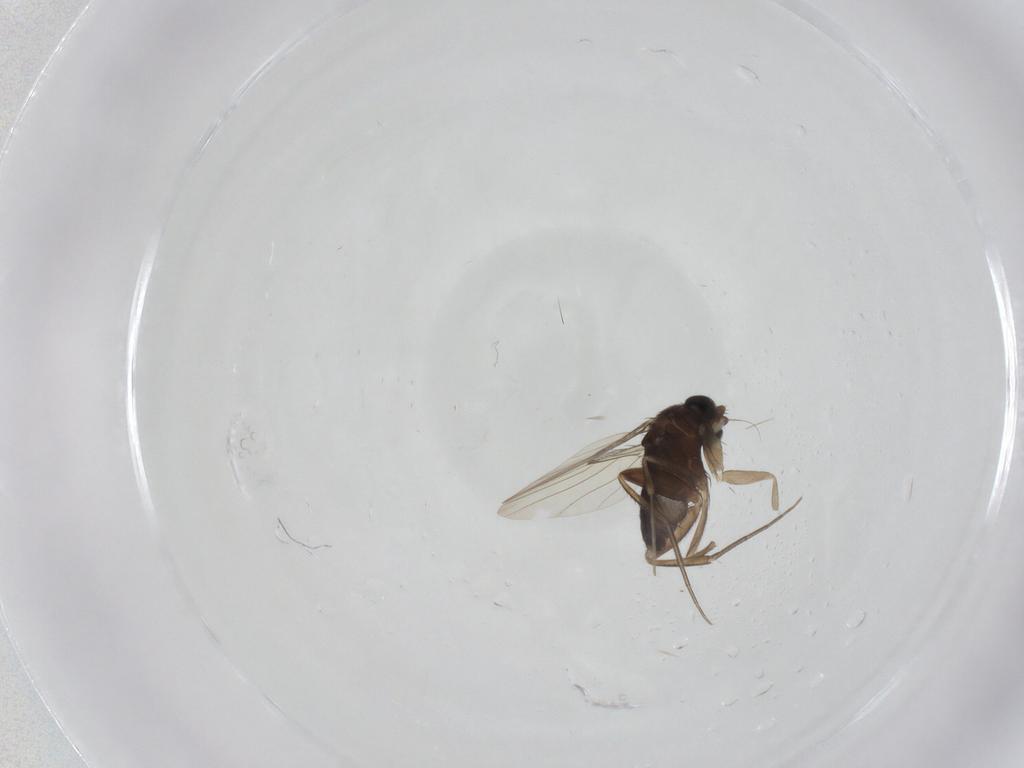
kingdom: Animalia
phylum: Arthropoda
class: Insecta
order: Diptera
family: Phoridae
